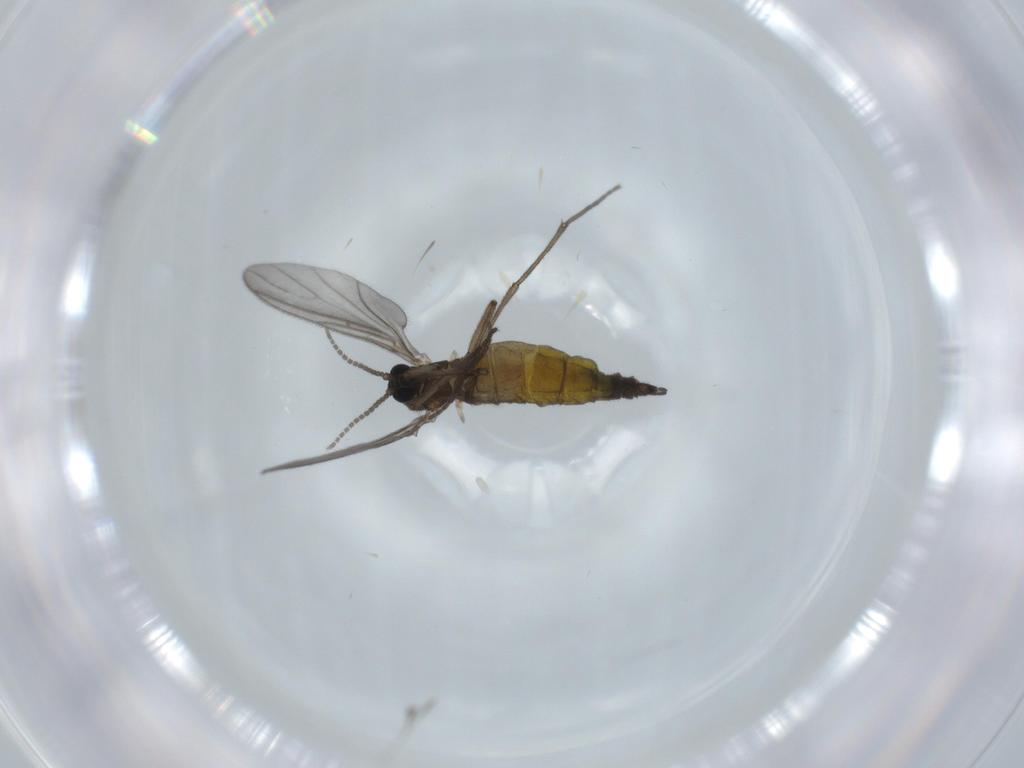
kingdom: Animalia
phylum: Arthropoda
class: Insecta
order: Diptera
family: Sciaridae
